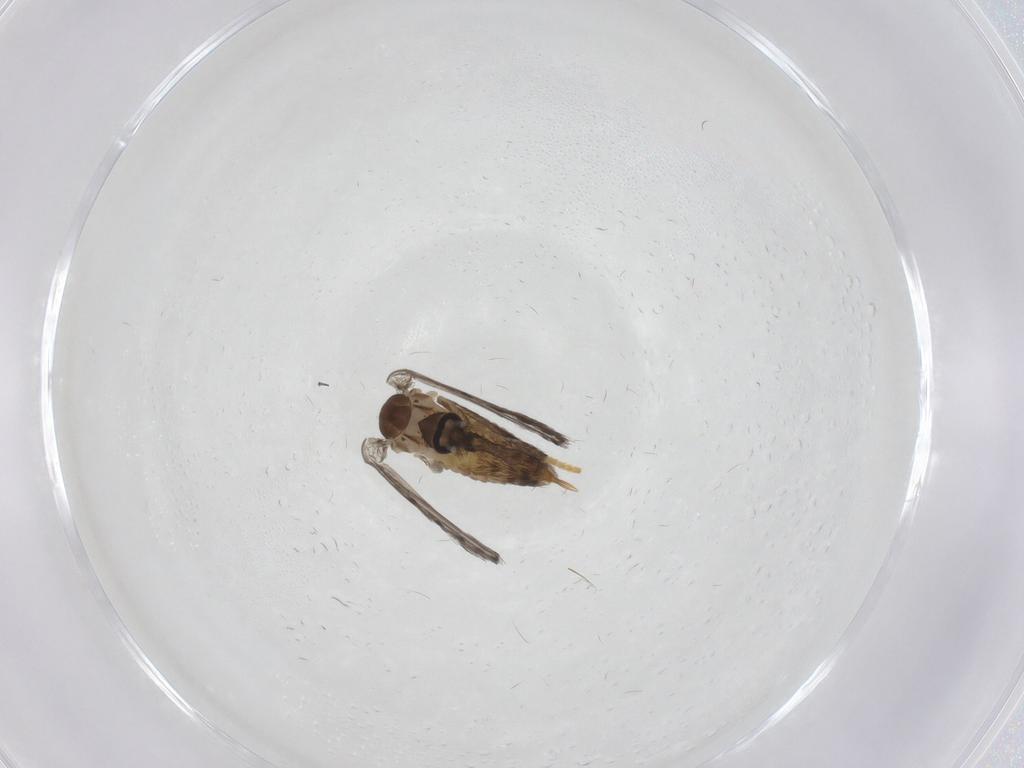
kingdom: Animalia
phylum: Arthropoda
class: Insecta
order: Diptera
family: Psychodidae
